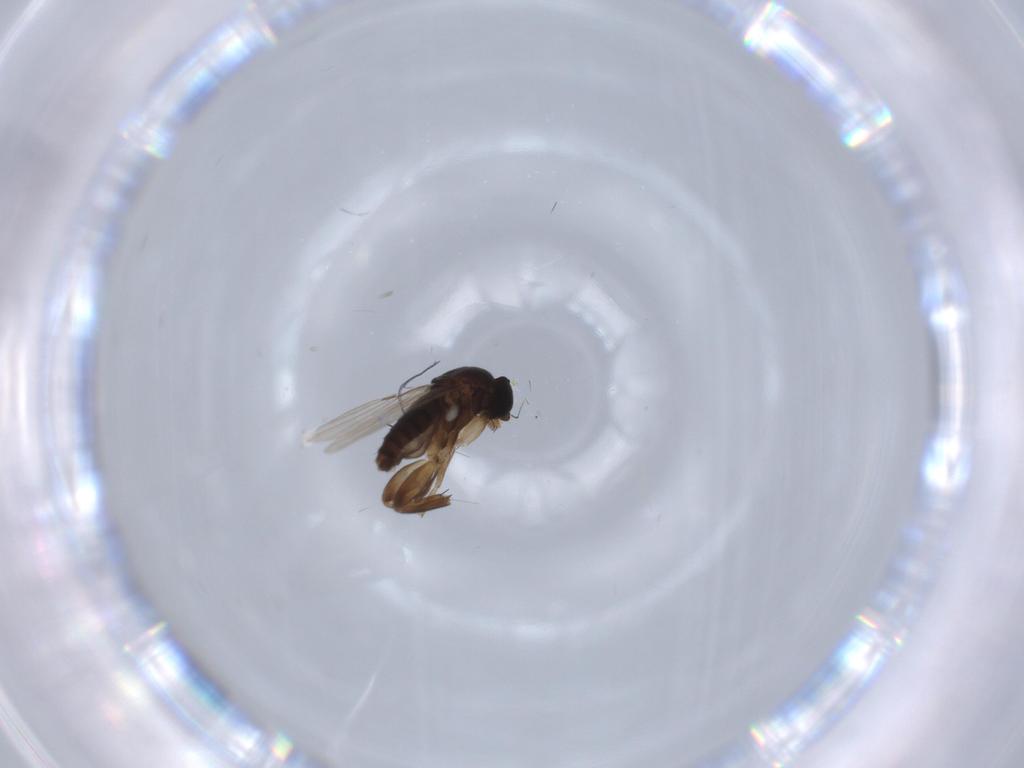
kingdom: Animalia
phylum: Arthropoda
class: Insecta
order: Diptera
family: Phoridae
